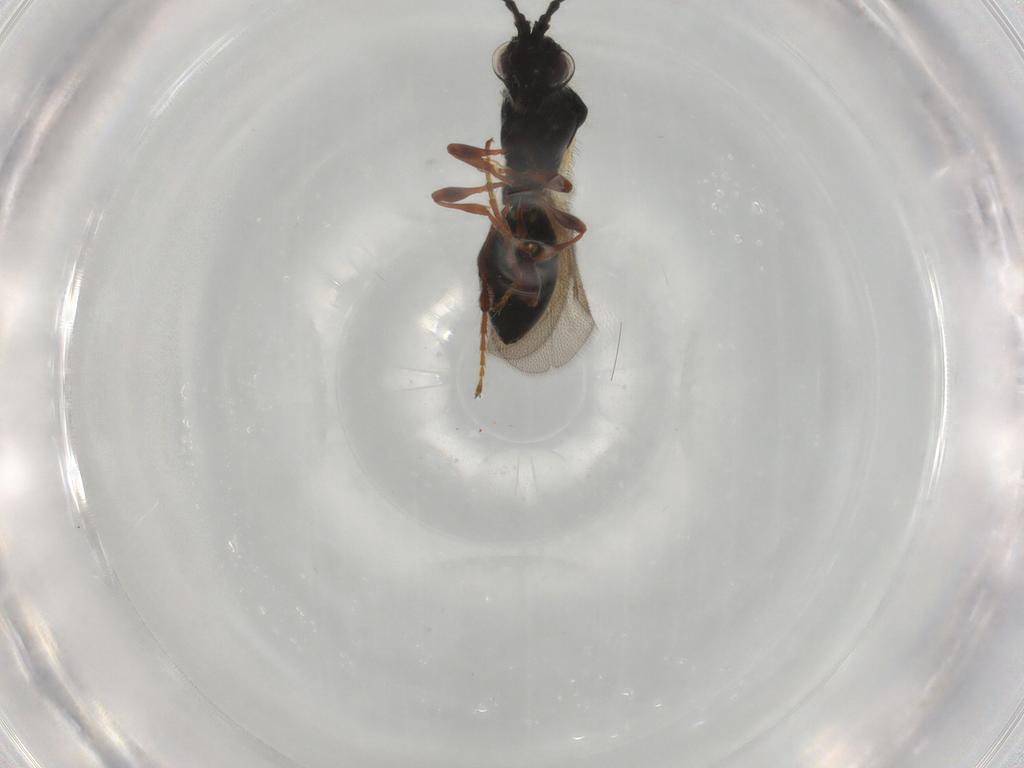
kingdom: Animalia
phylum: Arthropoda
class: Insecta
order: Hymenoptera
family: Diapriidae
